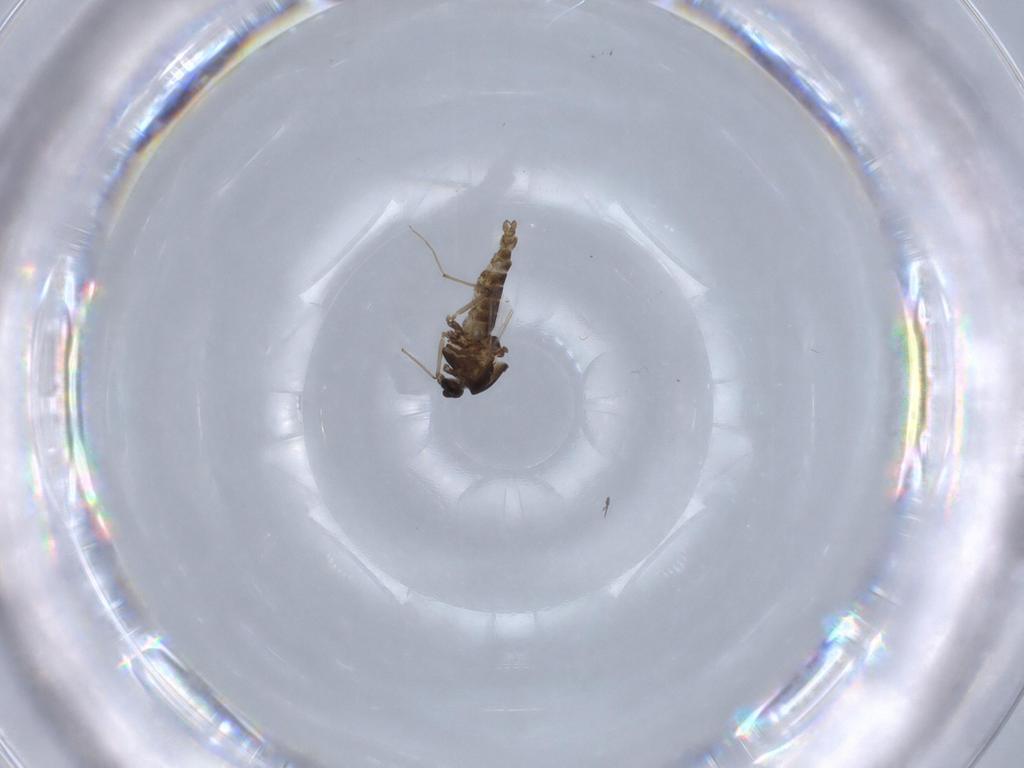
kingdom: Animalia
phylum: Arthropoda
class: Insecta
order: Diptera
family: Chironomidae
